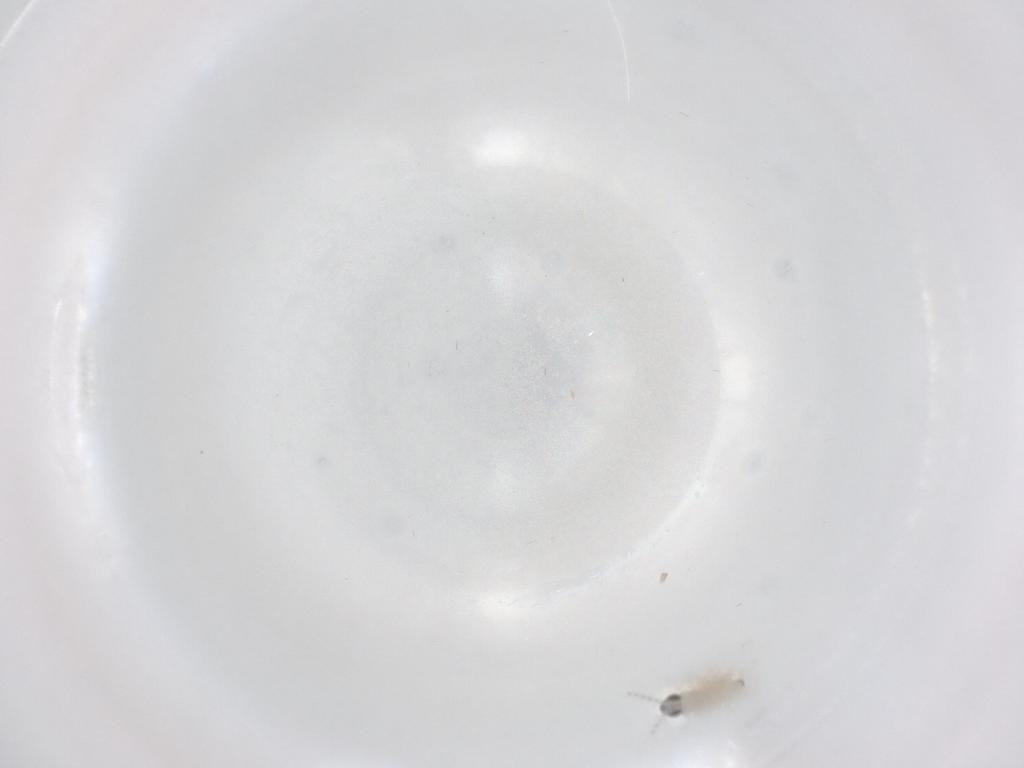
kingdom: Animalia
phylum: Arthropoda
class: Insecta
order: Diptera
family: Cecidomyiidae
